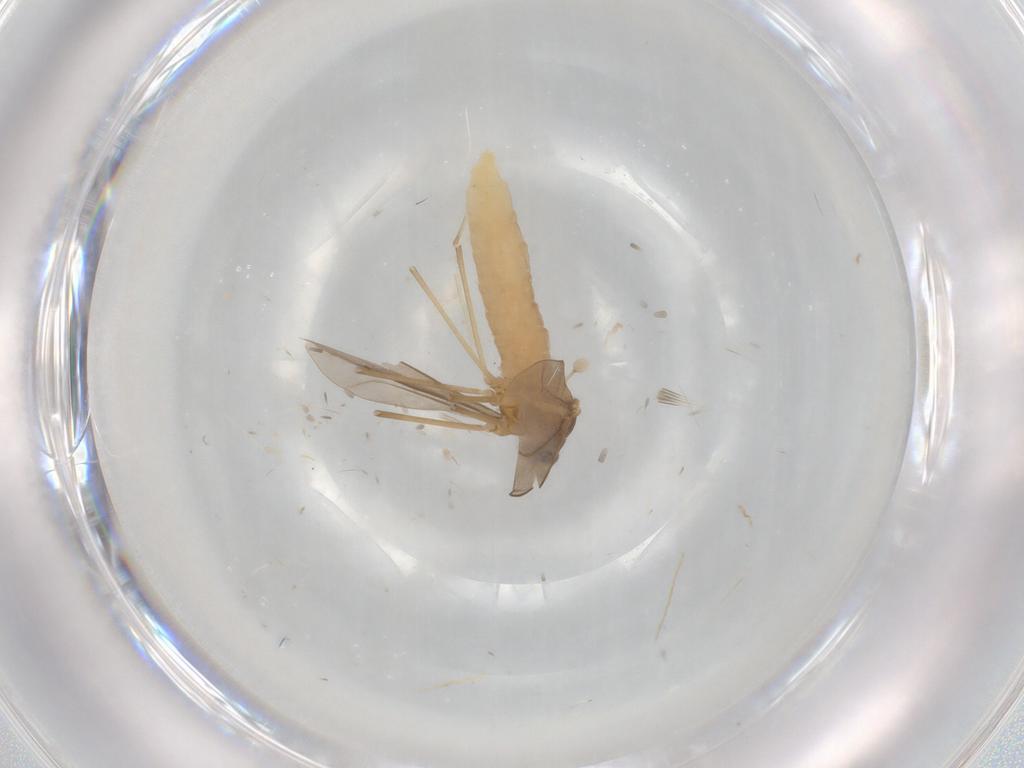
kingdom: Animalia
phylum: Arthropoda
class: Insecta
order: Diptera
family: Cecidomyiidae
